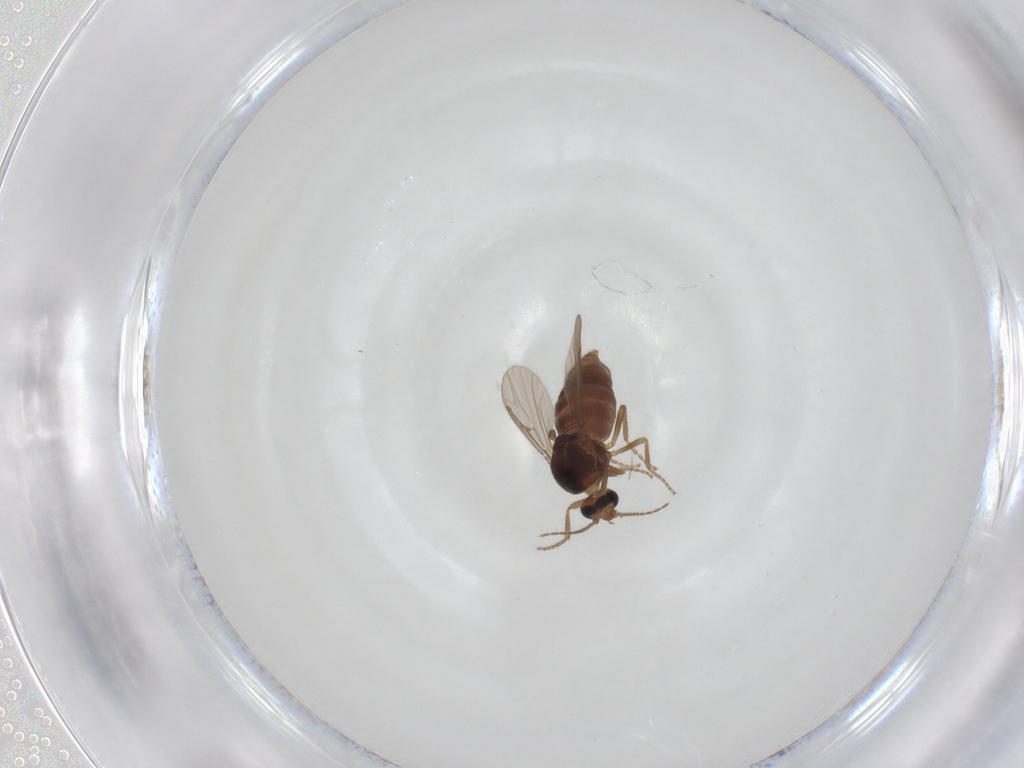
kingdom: Animalia
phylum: Arthropoda
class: Insecta
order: Diptera
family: Ceratopogonidae
